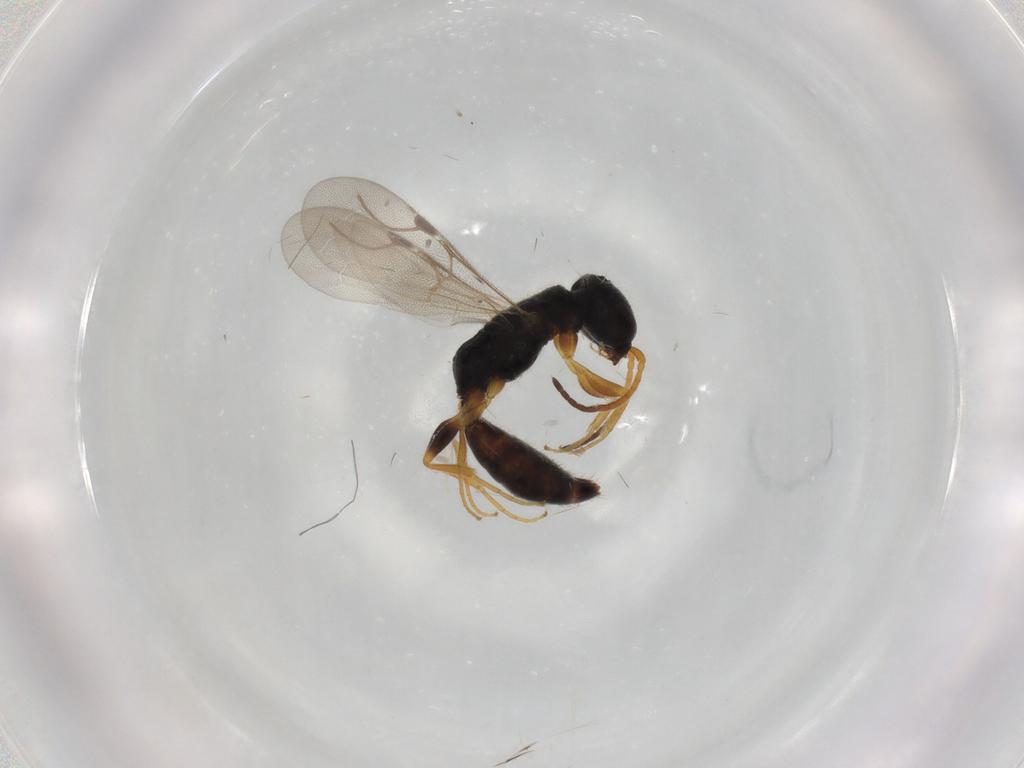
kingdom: Animalia
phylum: Arthropoda
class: Insecta
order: Hymenoptera
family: Bethylidae
